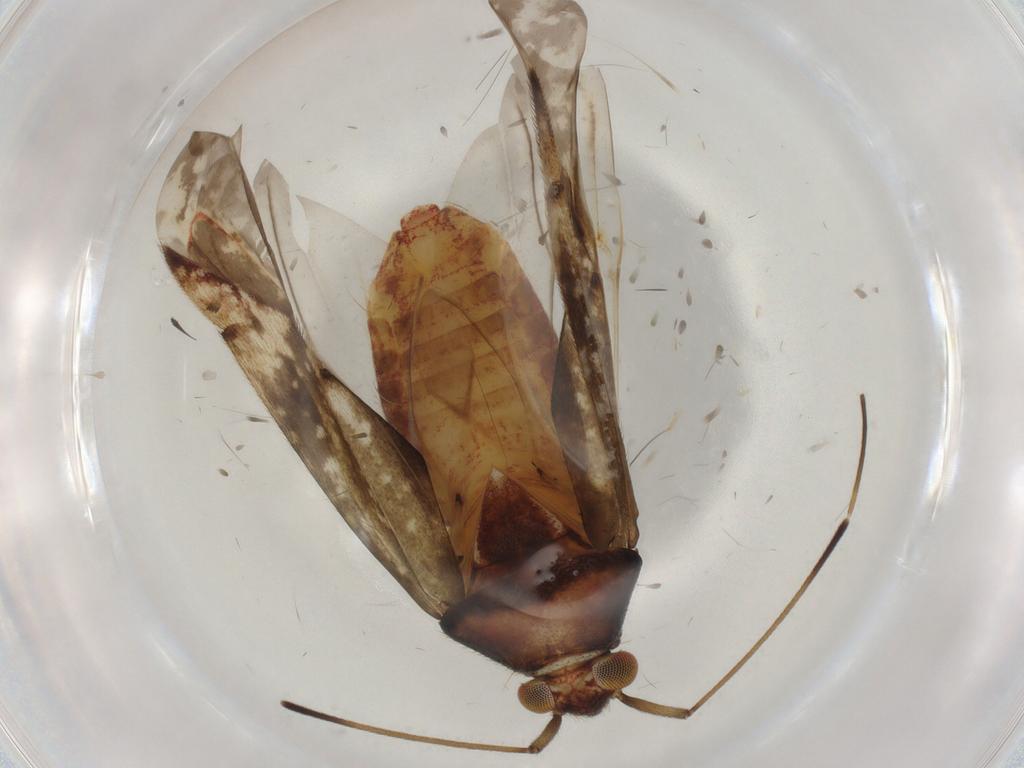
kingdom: Animalia
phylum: Arthropoda
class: Insecta
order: Hemiptera
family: Miridae
